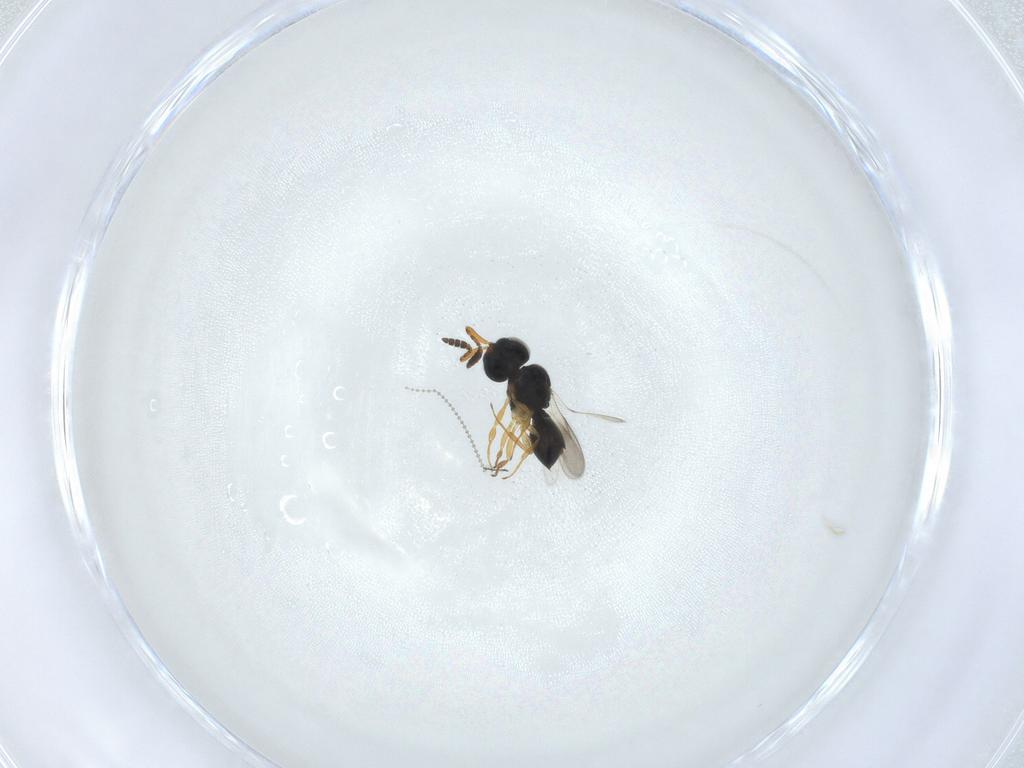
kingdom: Animalia
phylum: Arthropoda
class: Insecta
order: Hymenoptera
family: Scelionidae
